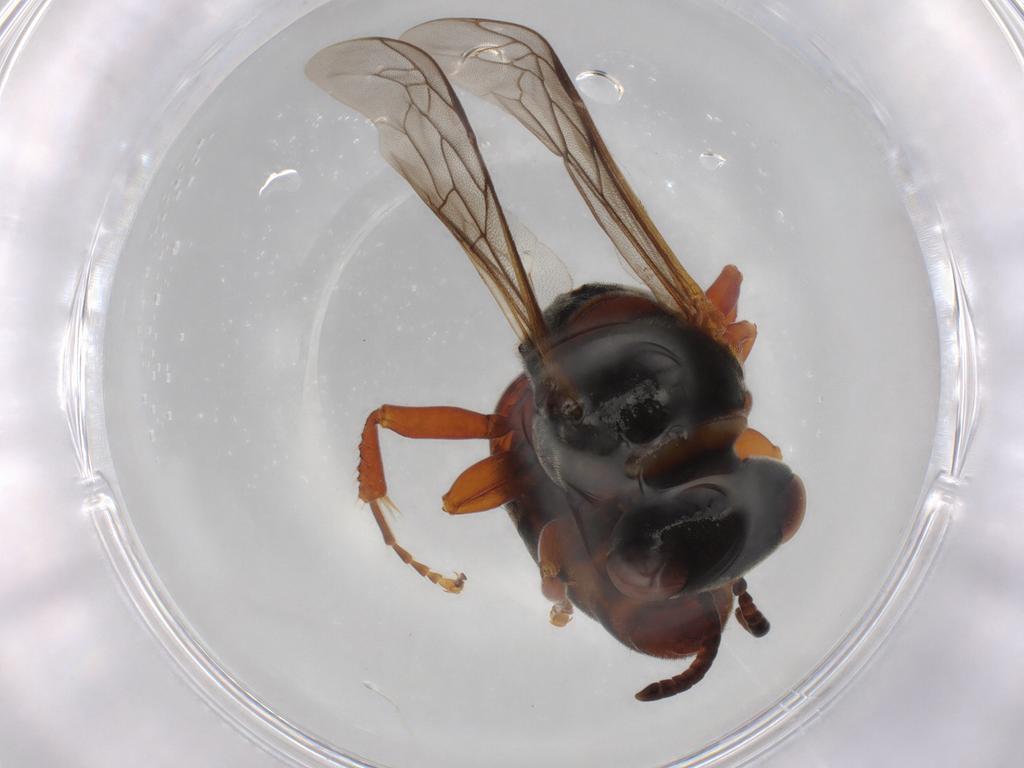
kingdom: Animalia
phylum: Arthropoda
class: Insecta
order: Hymenoptera
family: Crabronidae
